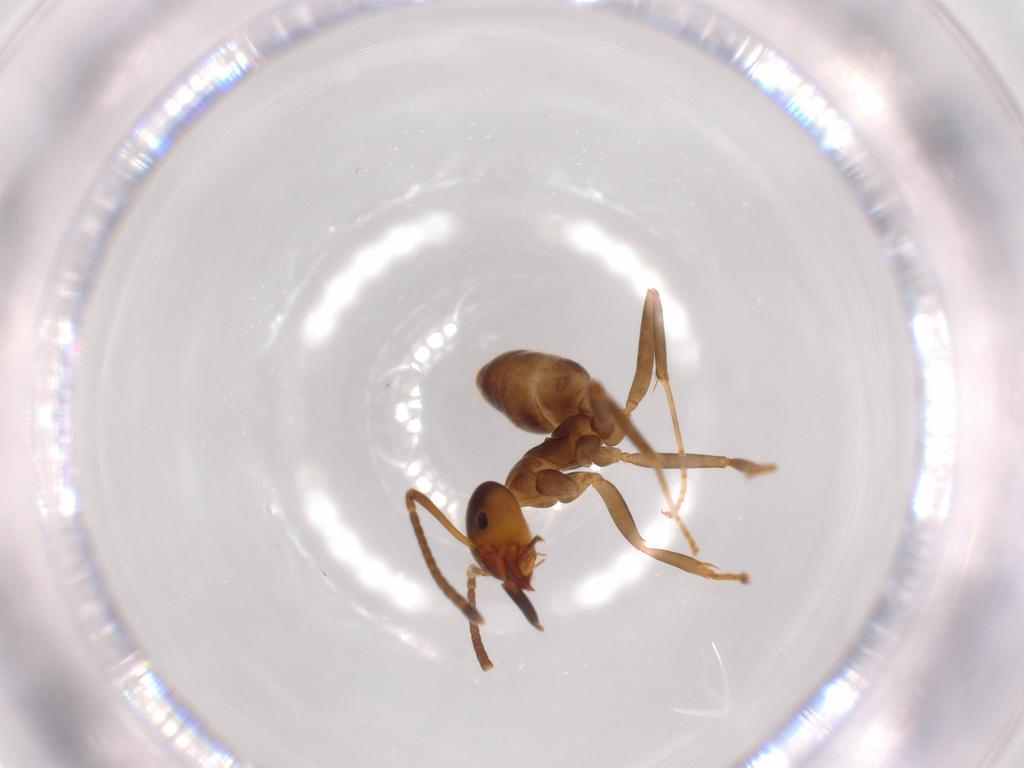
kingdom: Animalia
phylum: Arthropoda
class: Insecta
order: Hymenoptera
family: Formicidae
